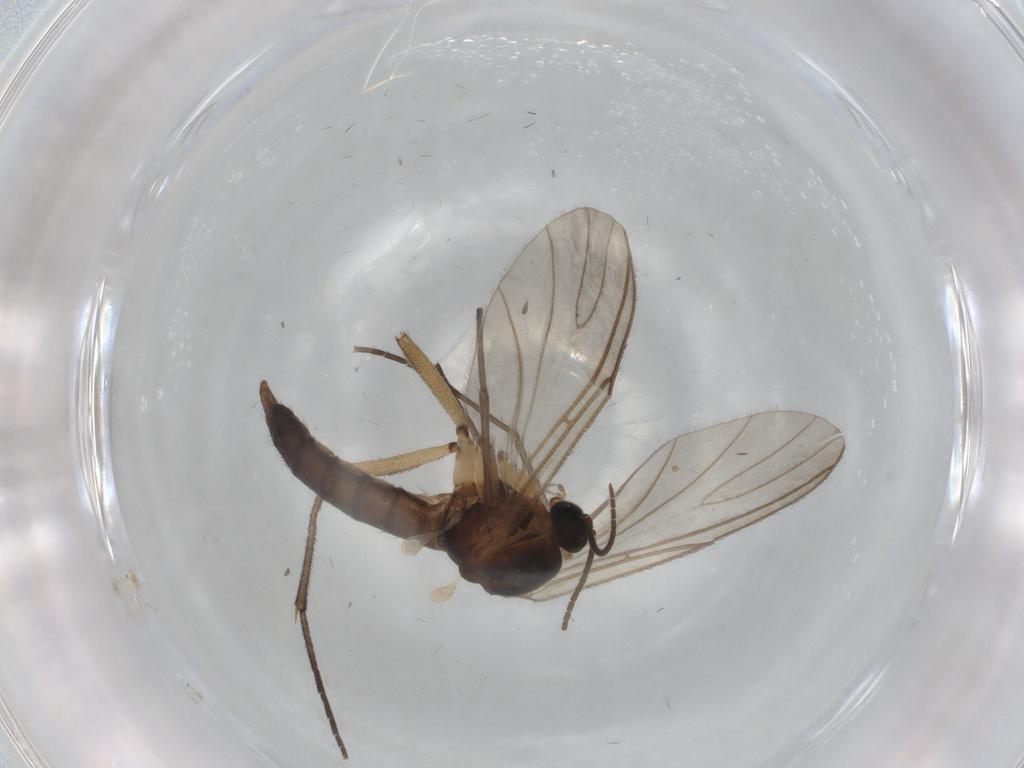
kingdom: Animalia
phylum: Arthropoda
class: Insecta
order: Diptera
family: Sciaridae
